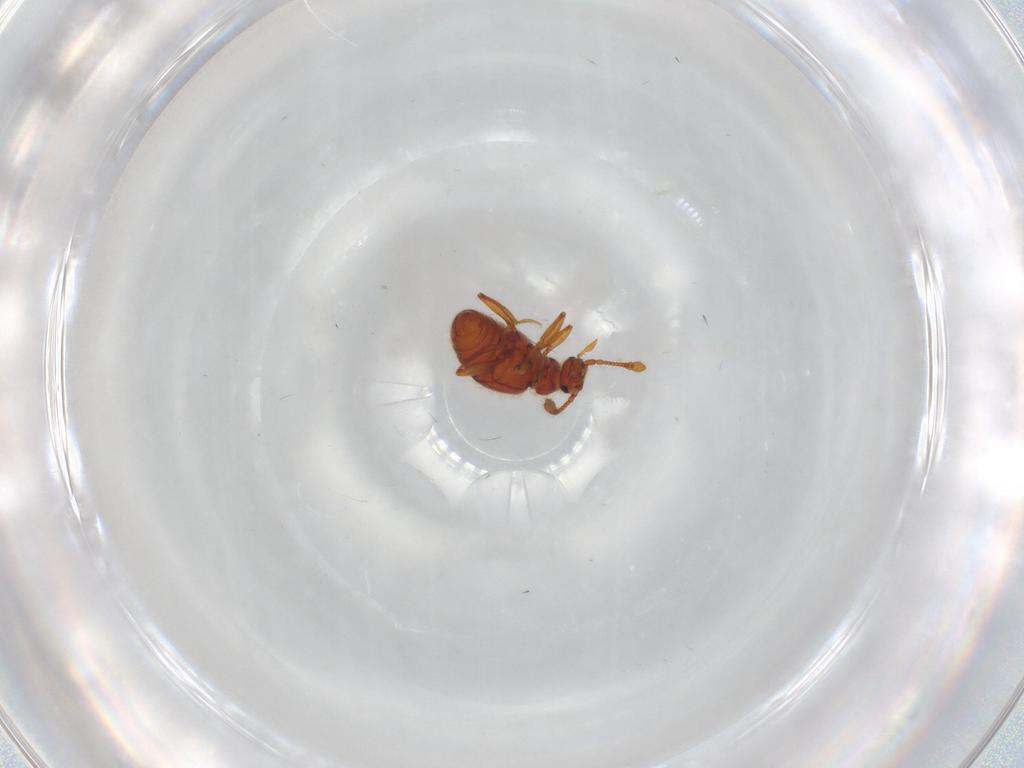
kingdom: Animalia
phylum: Arthropoda
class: Insecta
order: Coleoptera
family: Staphylinidae
